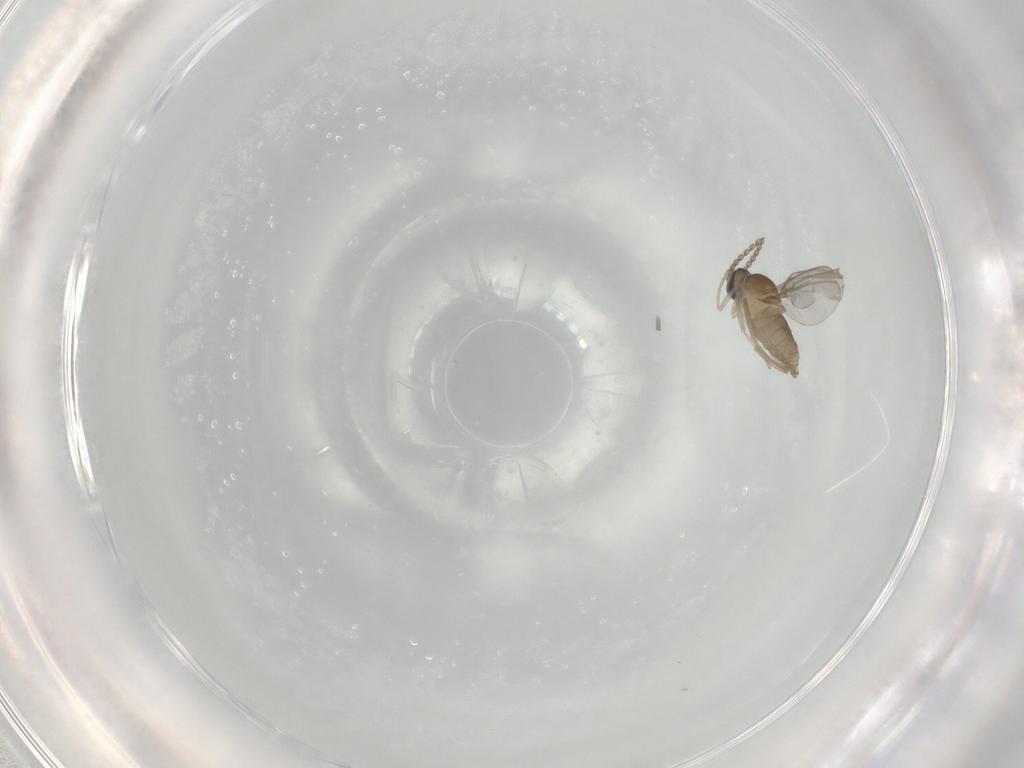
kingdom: Animalia
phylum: Arthropoda
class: Insecta
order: Diptera
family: Cecidomyiidae
